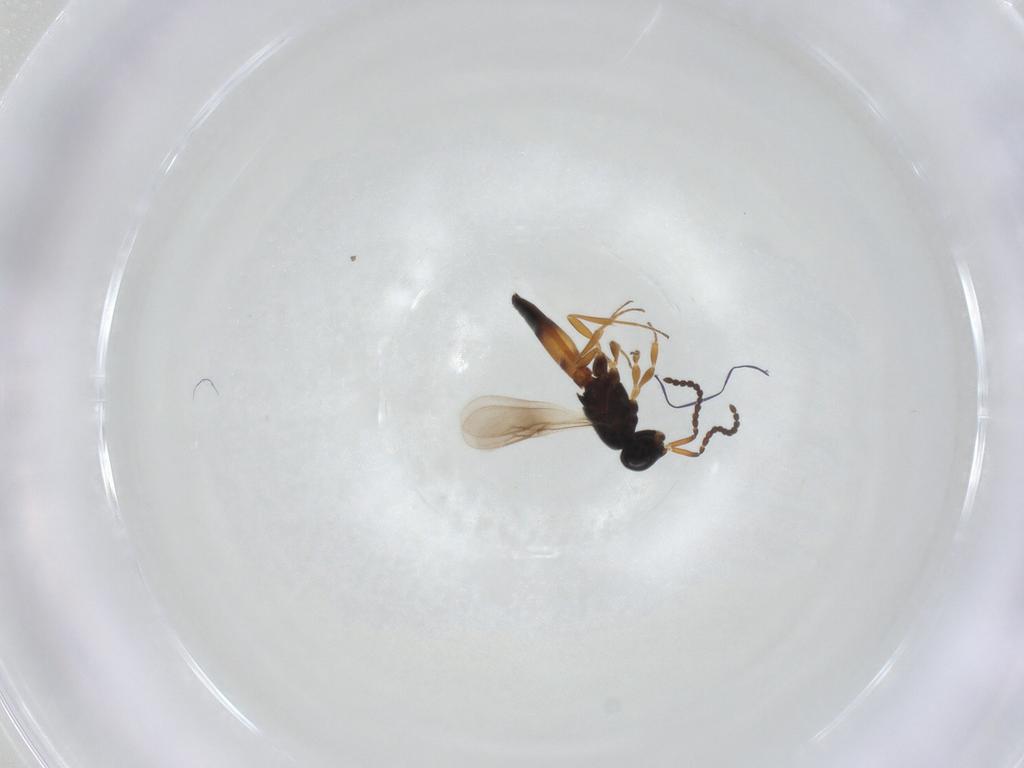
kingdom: Animalia
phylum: Arthropoda
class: Insecta
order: Hymenoptera
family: Scelionidae
